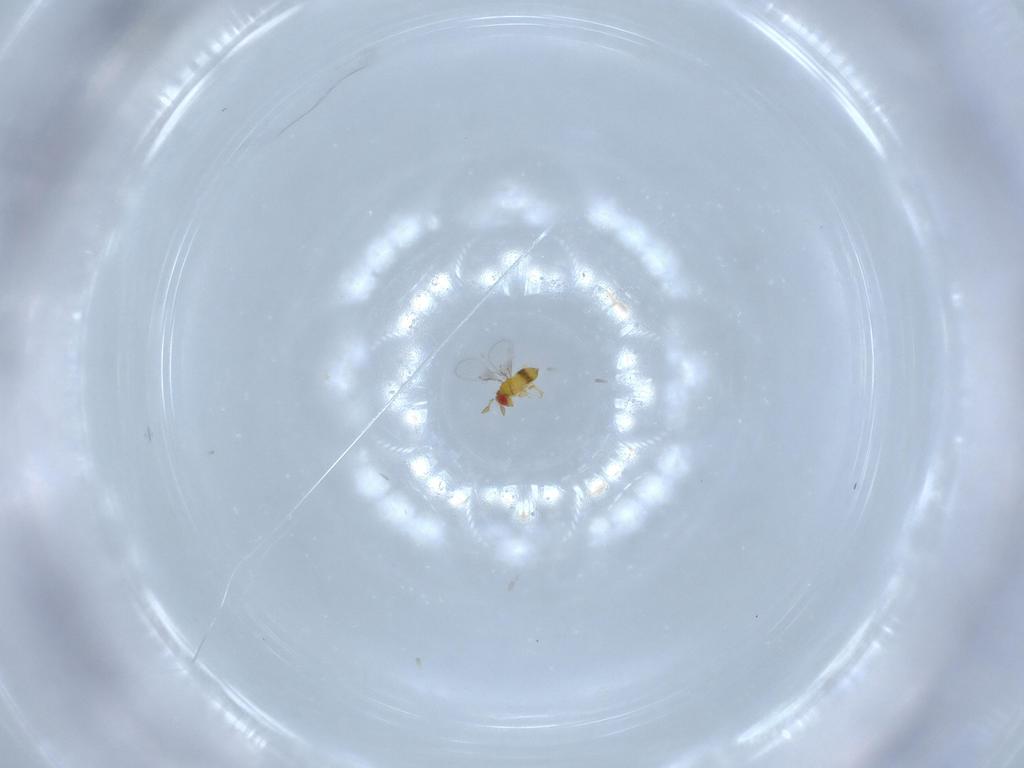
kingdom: Animalia
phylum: Arthropoda
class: Insecta
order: Hymenoptera
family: Trichogrammatidae
